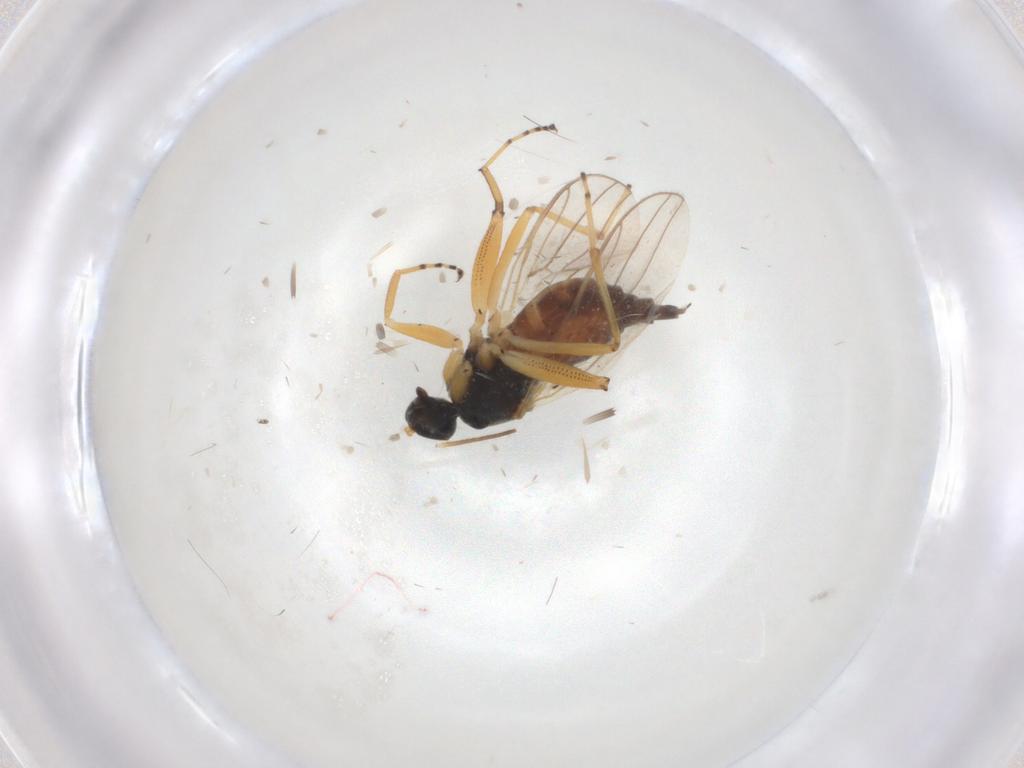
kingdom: Animalia
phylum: Arthropoda
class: Insecta
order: Diptera
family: Hybotidae
